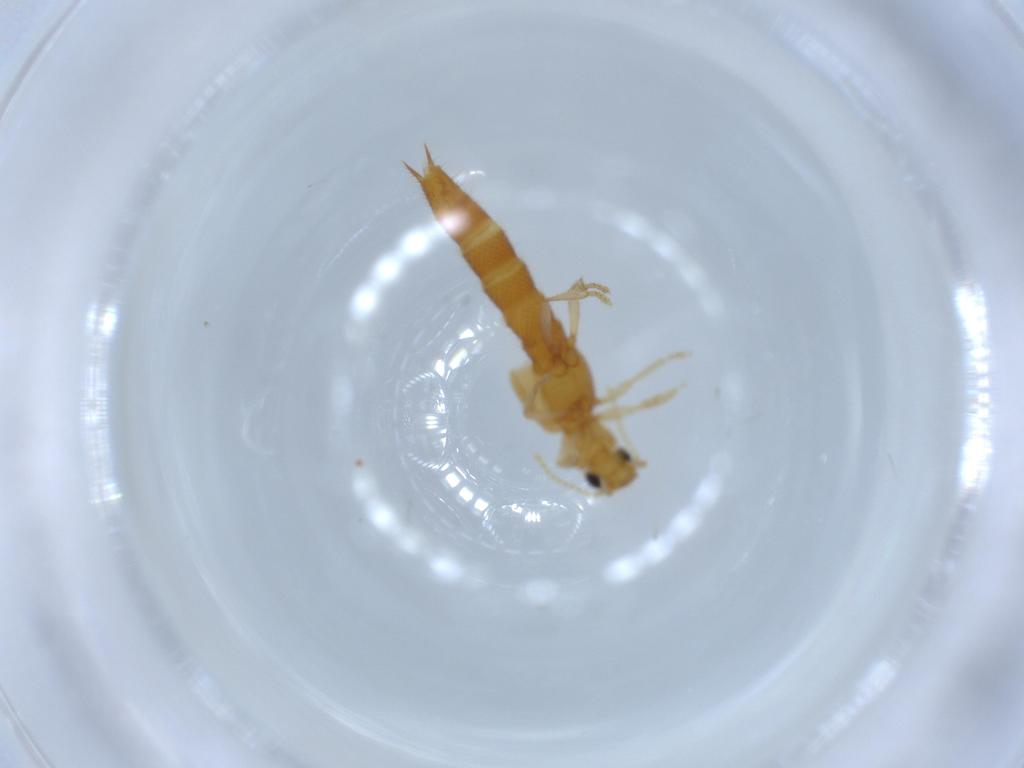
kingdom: Animalia
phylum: Arthropoda
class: Insecta
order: Coleoptera
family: Staphylinidae
